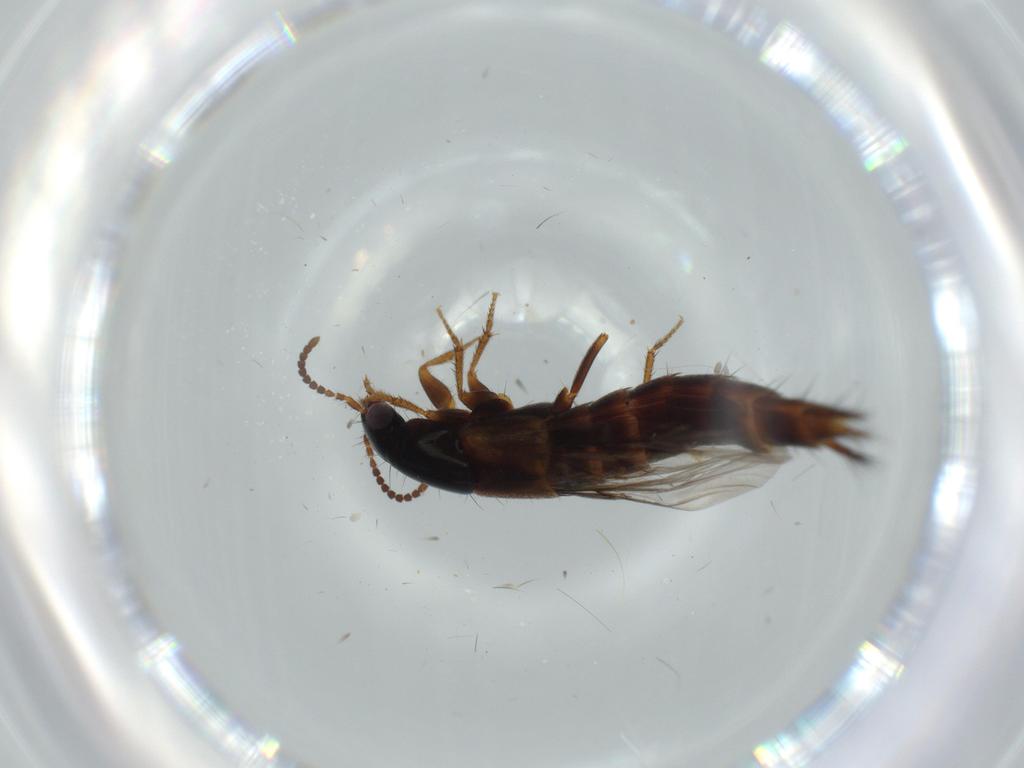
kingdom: Animalia
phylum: Arthropoda
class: Insecta
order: Coleoptera
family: Staphylinidae
